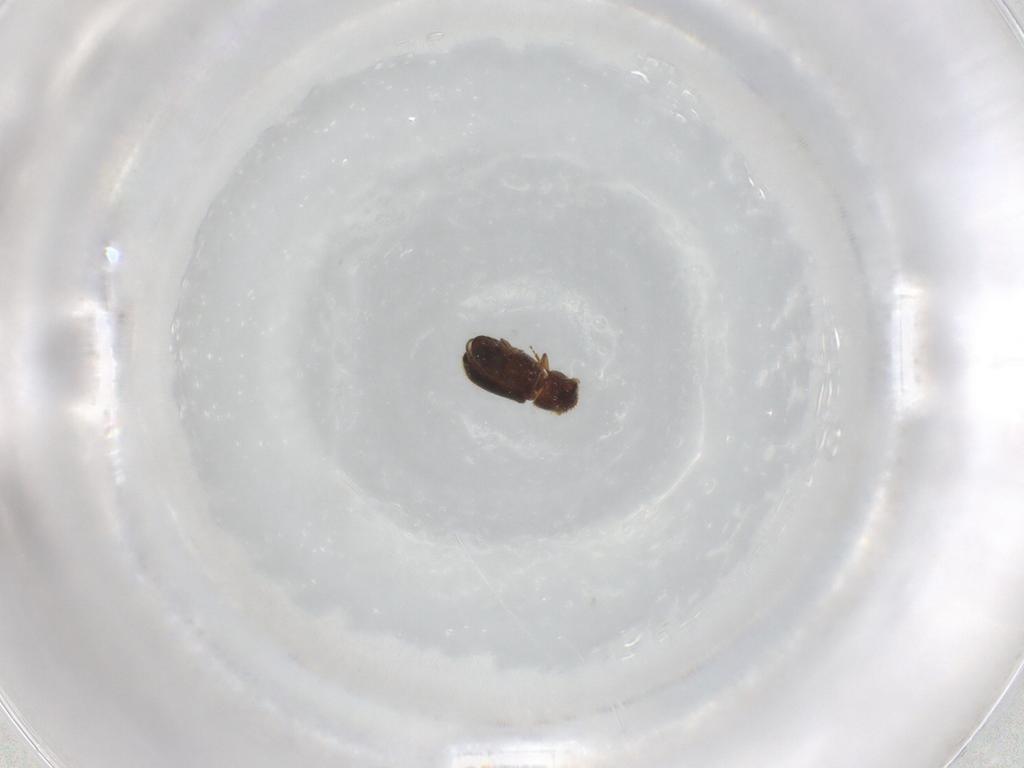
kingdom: Animalia
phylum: Arthropoda
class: Insecta
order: Coleoptera
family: Curculionidae
